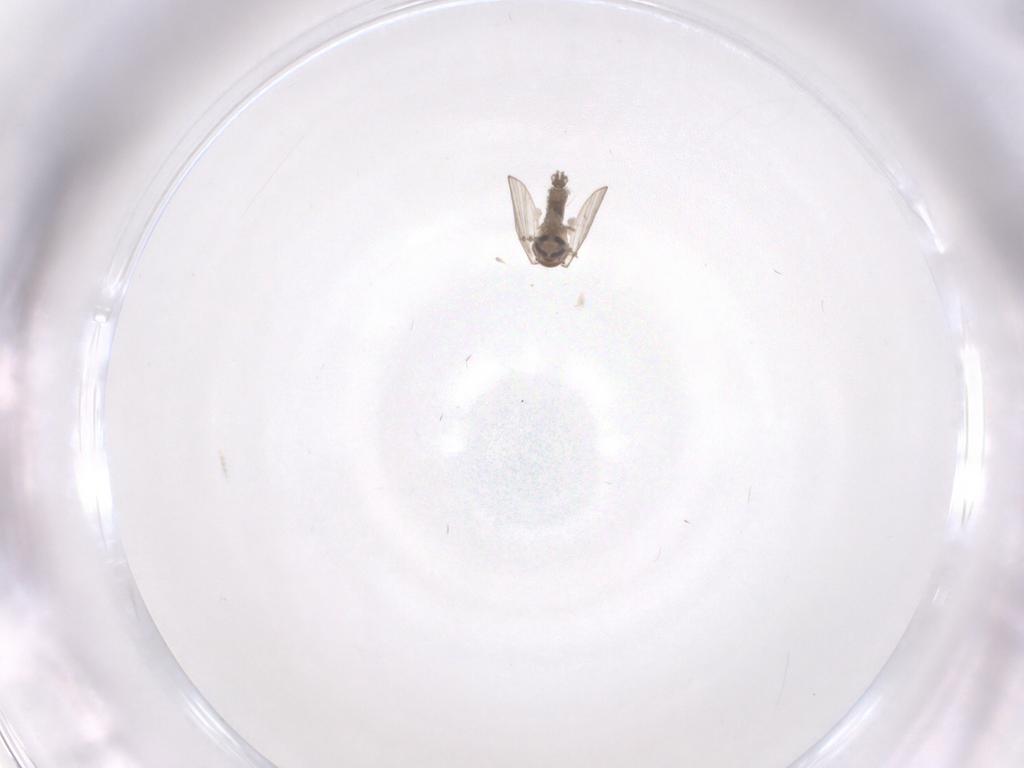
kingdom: Animalia
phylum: Arthropoda
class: Insecta
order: Diptera
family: Psychodidae
